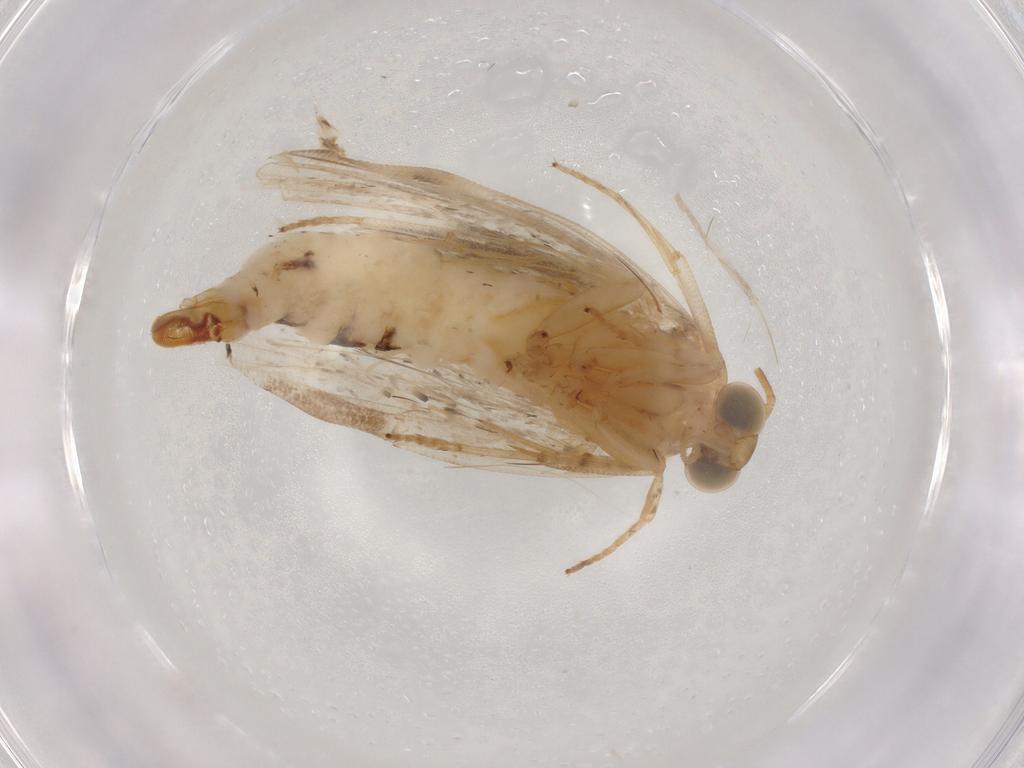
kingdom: Animalia
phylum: Arthropoda
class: Insecta
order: Lepidoptera
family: Tortricidae
